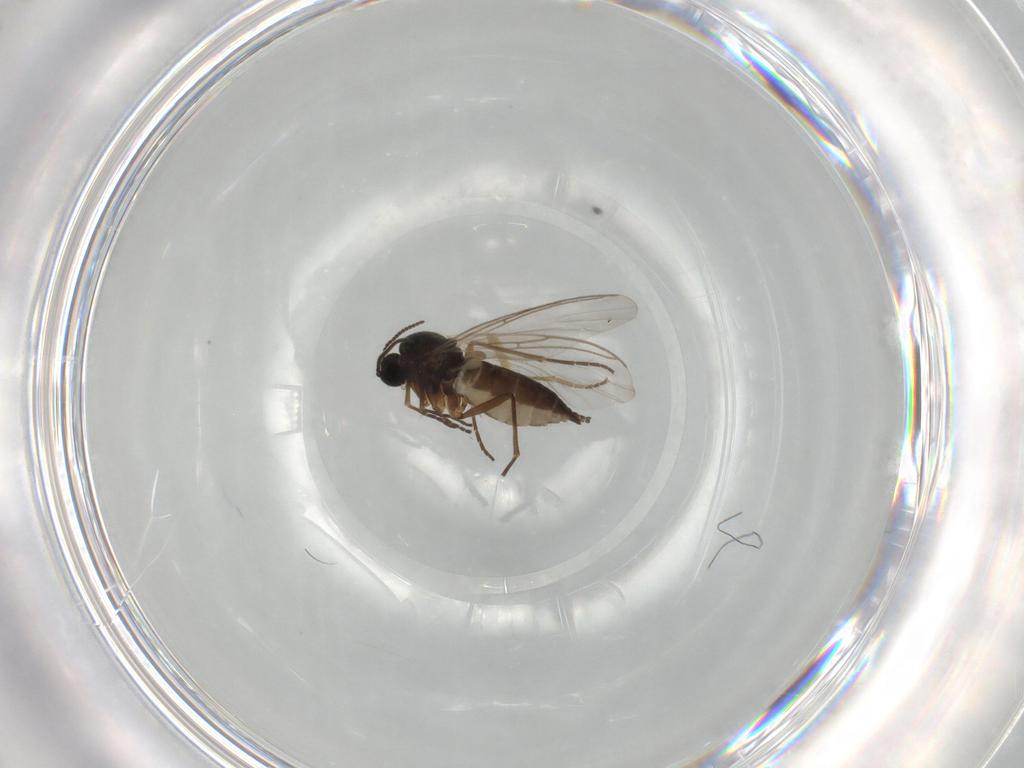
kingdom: Animalia
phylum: Arthropoda
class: Insecta
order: Diptera
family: Sciaridae
